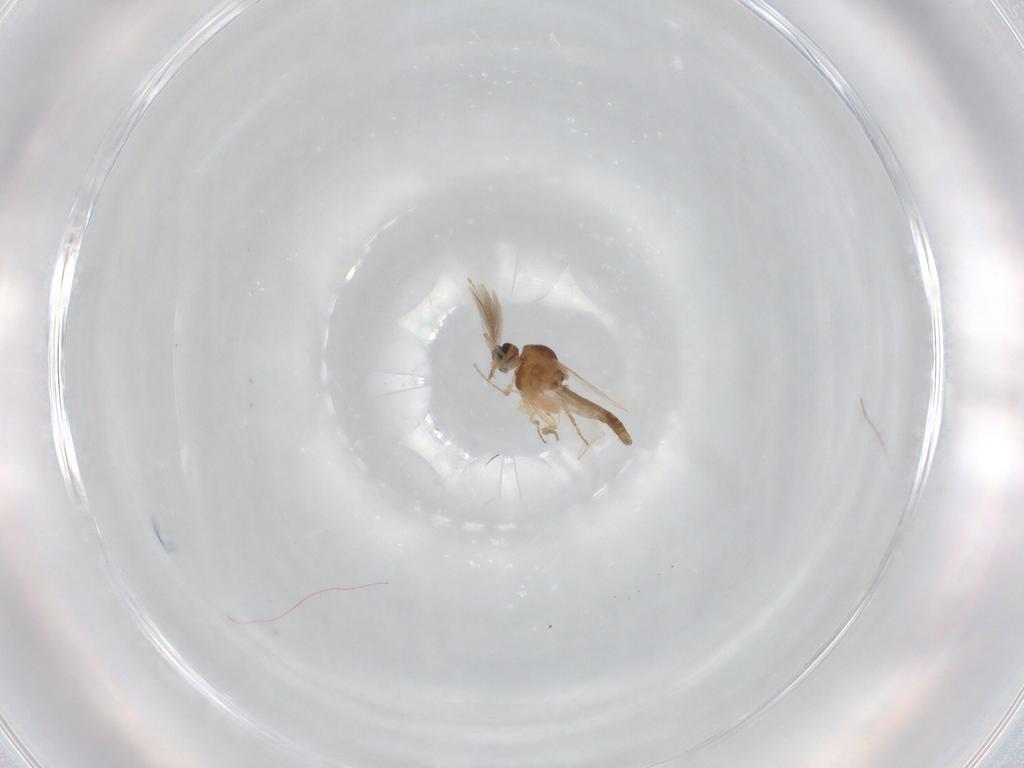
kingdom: Animalia
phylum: Arthropoda
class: Insecta
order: Diptera
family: Ceratopogonidae
